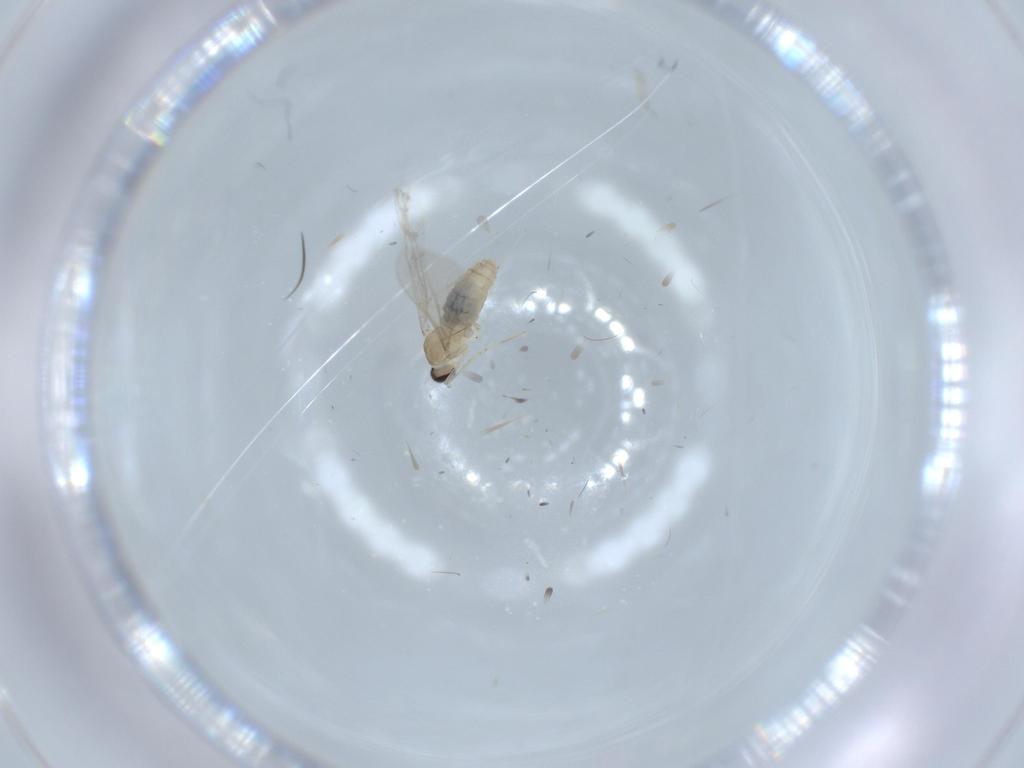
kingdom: Animalia
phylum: Arthropoda
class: Insecta
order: Diptera
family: Cecidomyiidae
